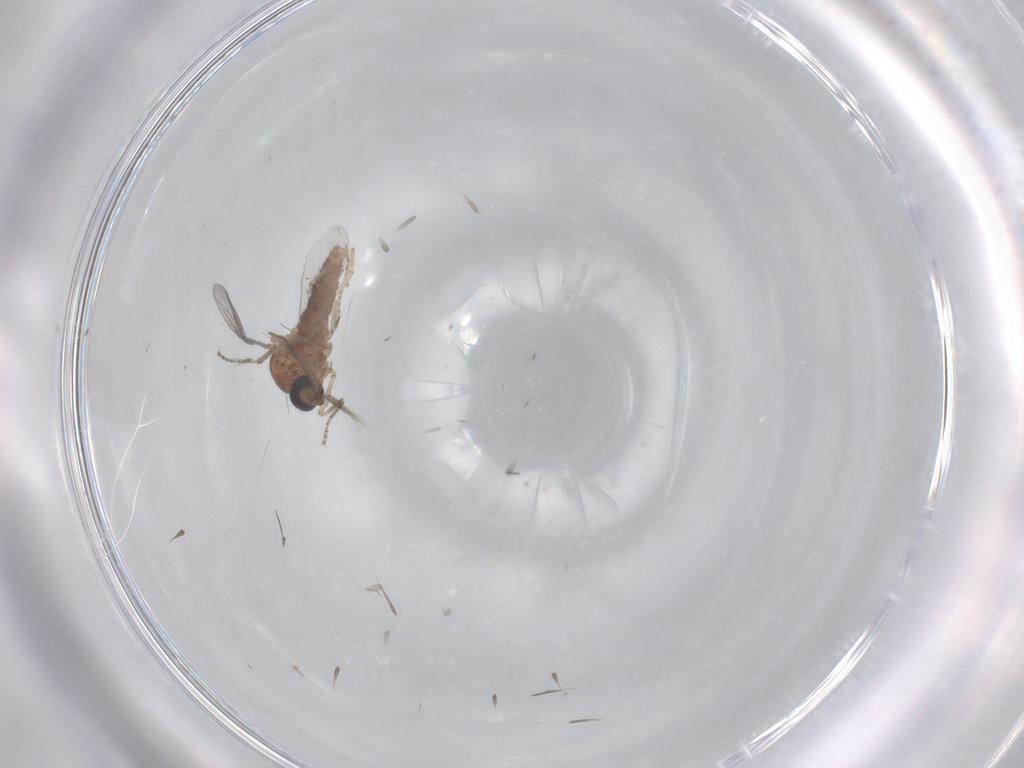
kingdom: Animalia
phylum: Arthropoda
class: Insecta
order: Diptera
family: Ceratopogonidae
